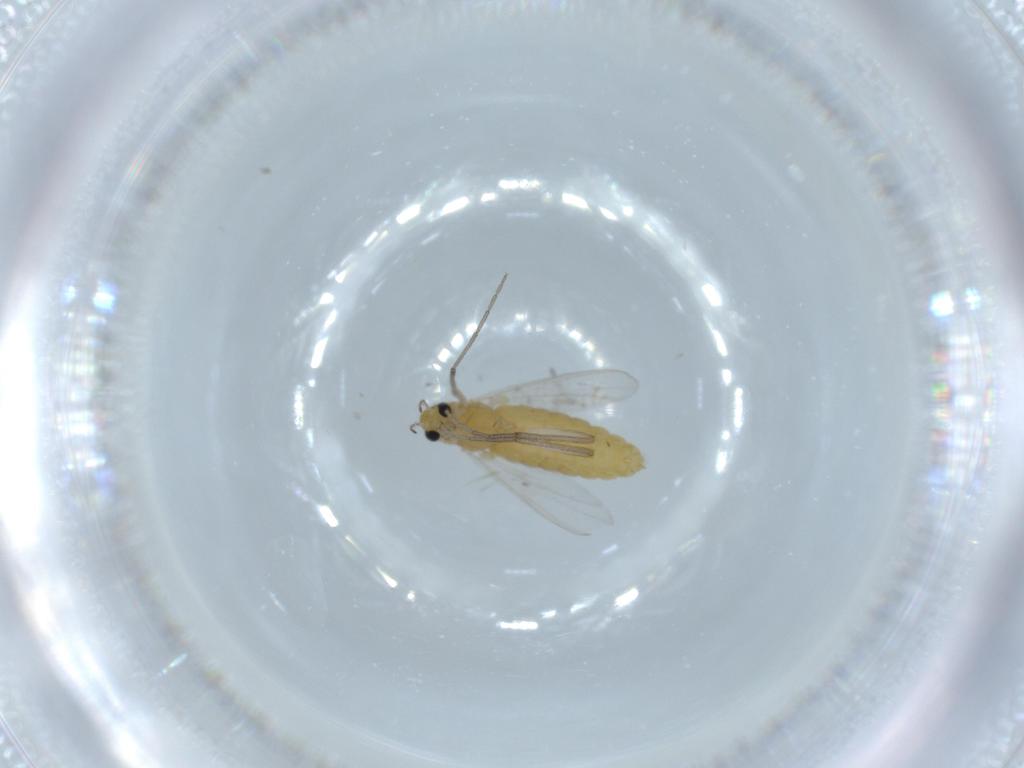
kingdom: Animalia
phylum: Arthropoda
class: Insecta
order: Diptera
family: Chironomidae
